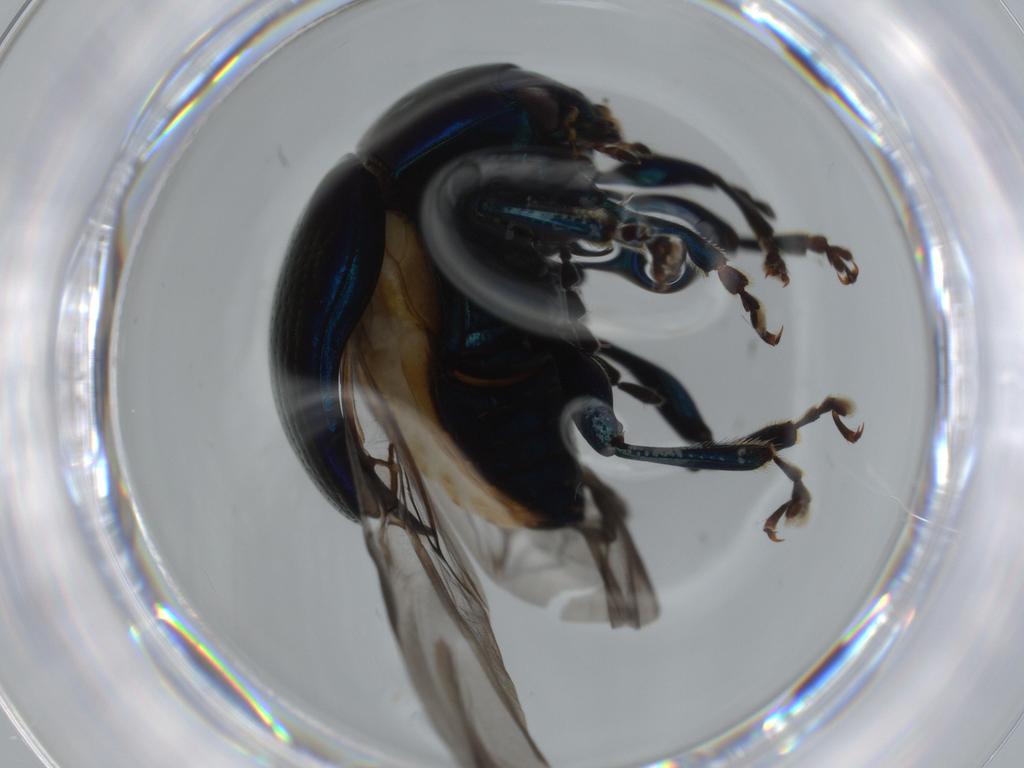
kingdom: Animalia
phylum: Arthropoda
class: Insecta
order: Coleoptera
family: Chrysomelidae
